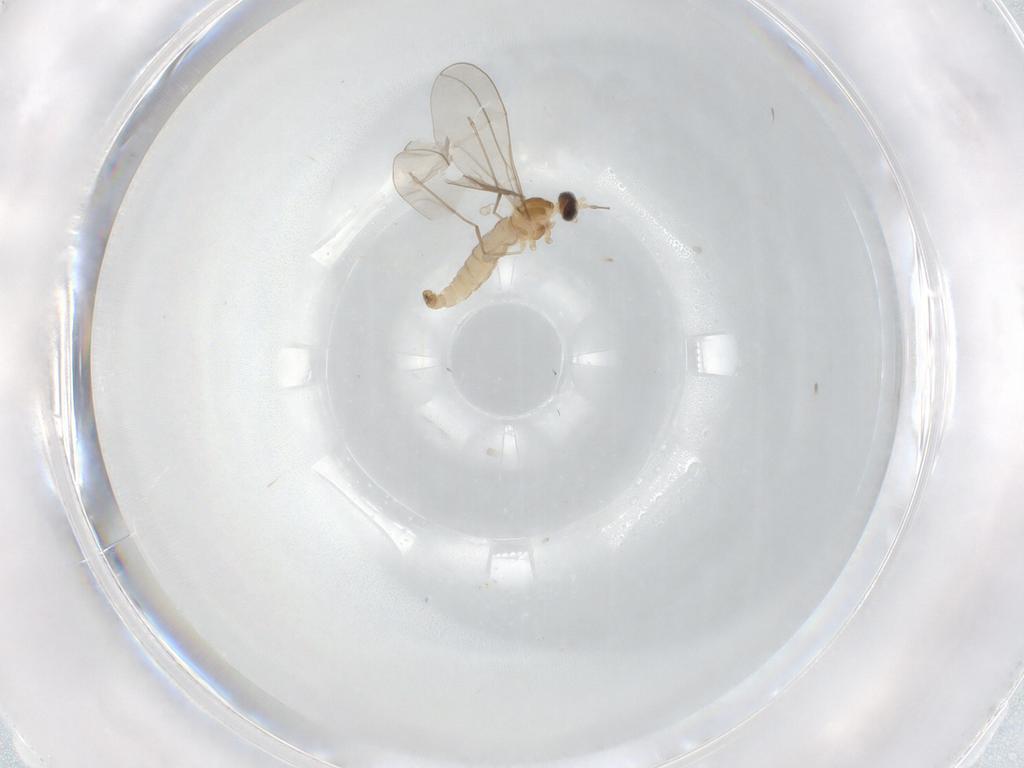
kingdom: Animalia
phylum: Arthropoda
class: Insecta
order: Diptera
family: Cecidomyiidae
